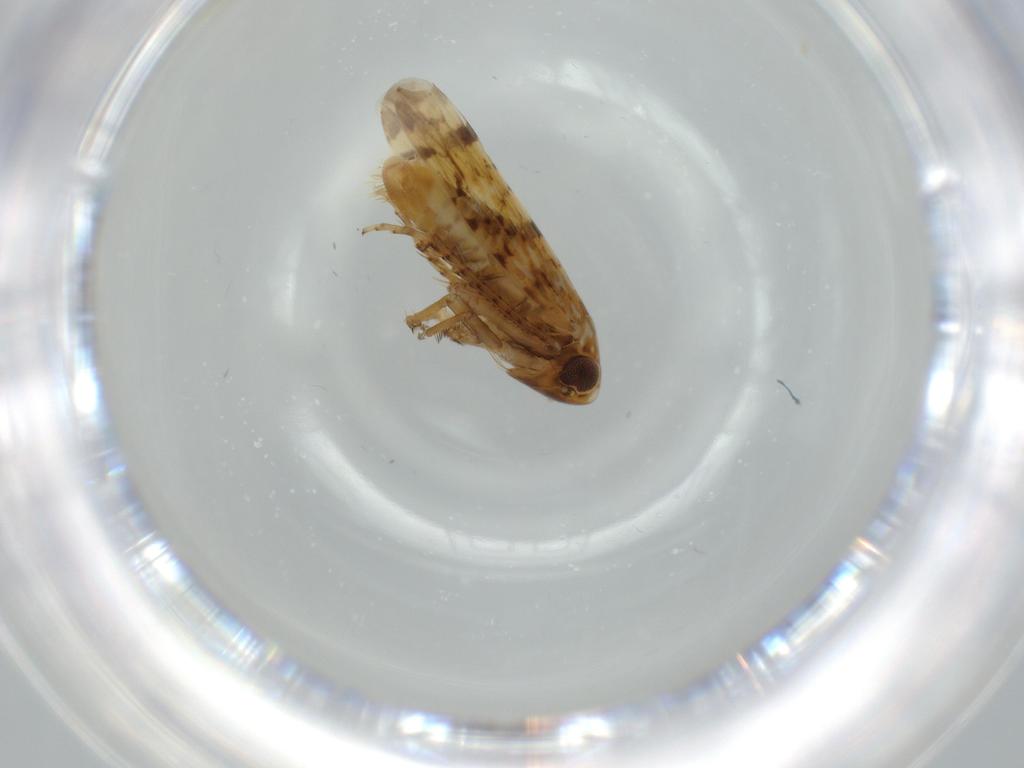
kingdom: Animalia
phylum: Arthropoda
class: Insecta
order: Hemiptera
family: Cicadellidae
